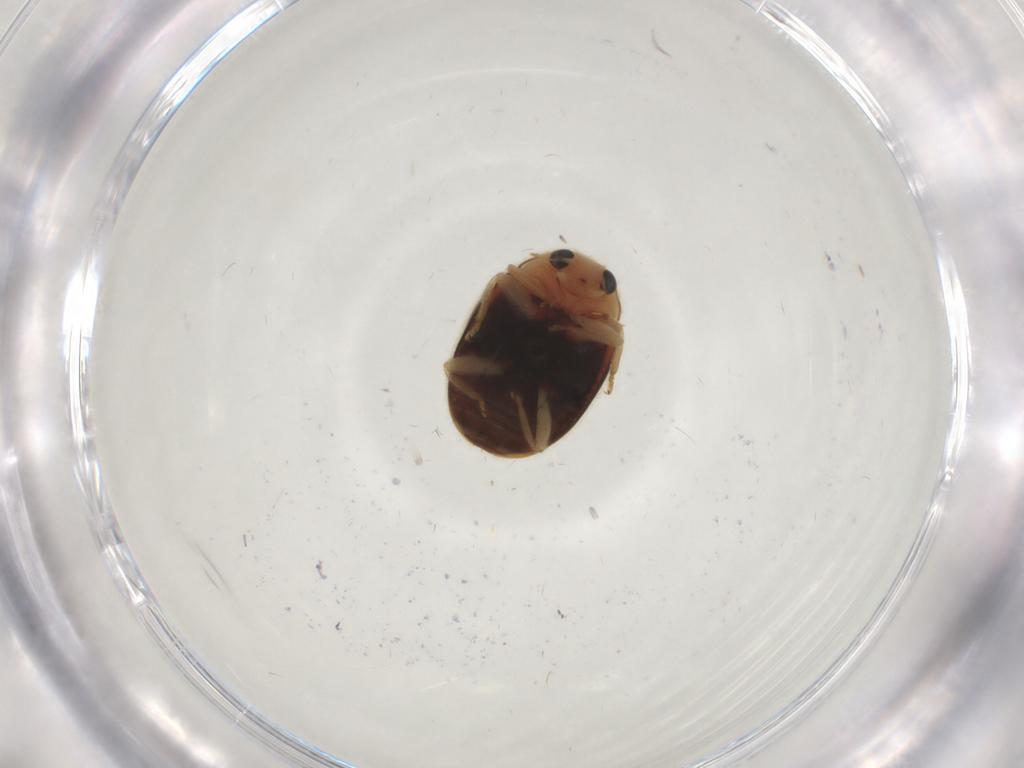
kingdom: Animalia
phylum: Arthropoda
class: Insecta
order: Coleoptera
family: Coccinellidae
